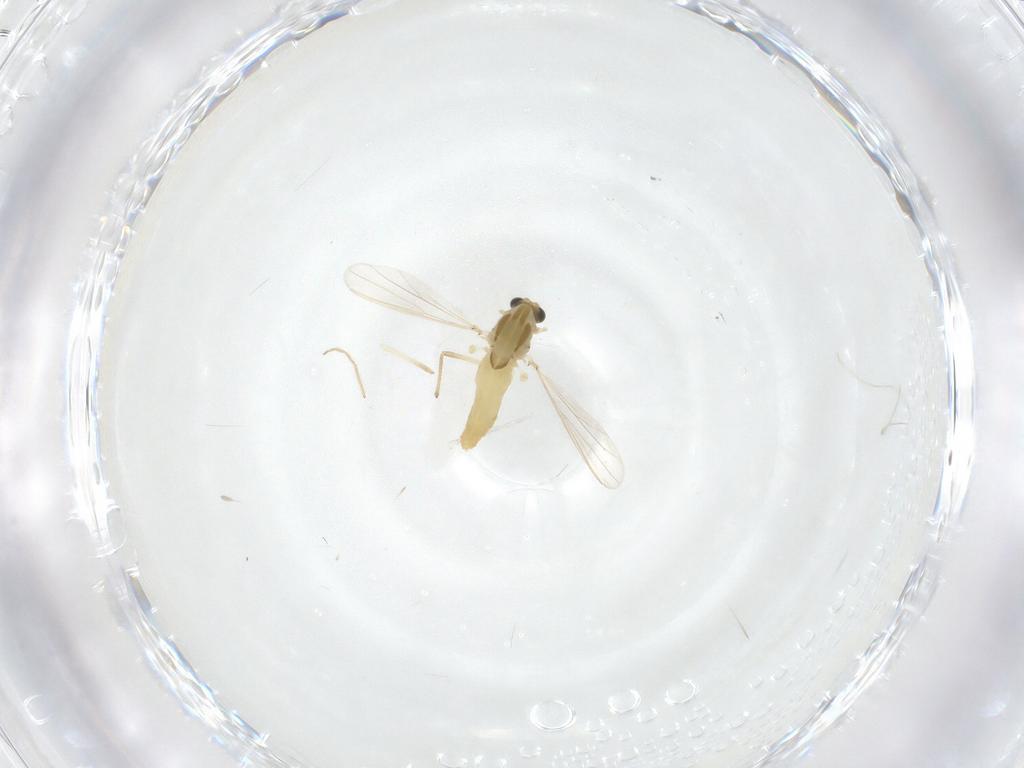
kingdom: Animalia
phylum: Arthropoda
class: Insecta
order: Diptera
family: Chironomidae
